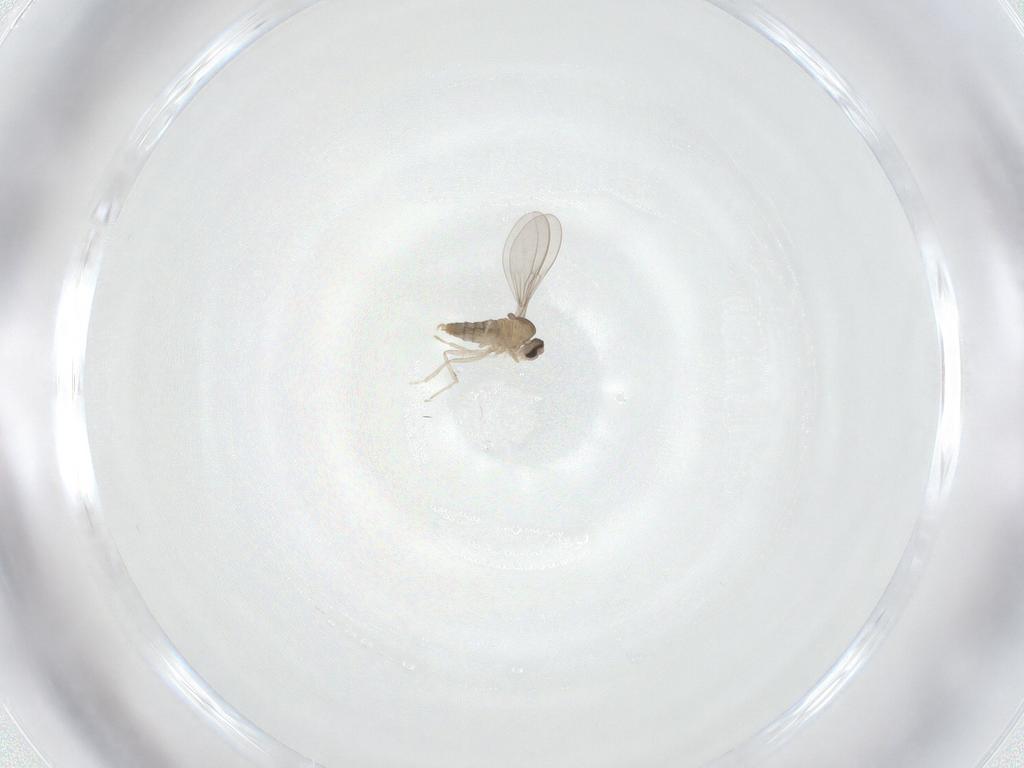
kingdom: Animalia
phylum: Arthropoda
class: Insecta
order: Diptera
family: Cecidomyiidae
